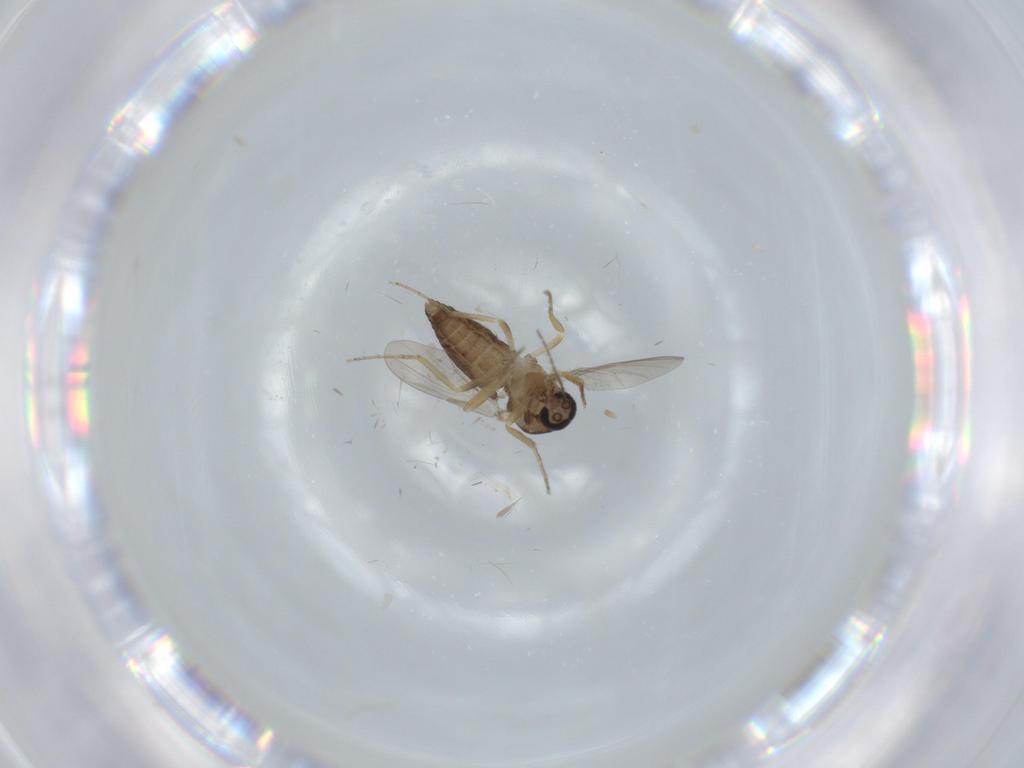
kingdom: Animalia
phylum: Arthropoda
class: Insecta
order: Diptera
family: Ceratopogonidae
